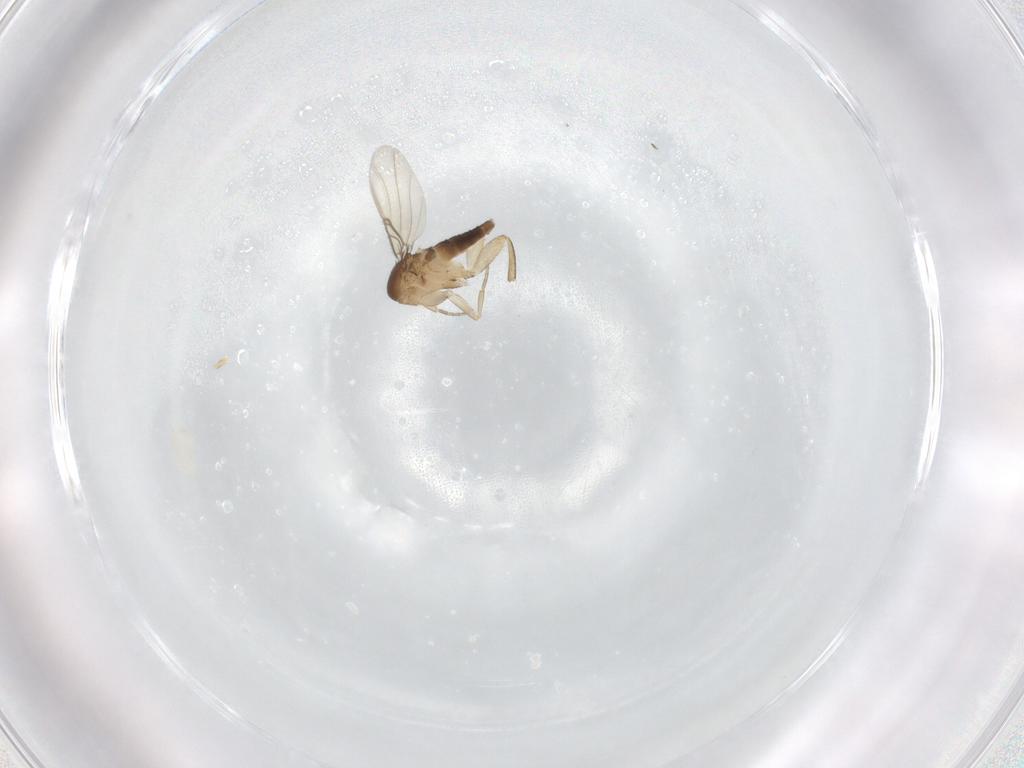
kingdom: Animalia
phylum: Arthropoda
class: Insecta
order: Diptera
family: Phoridae
